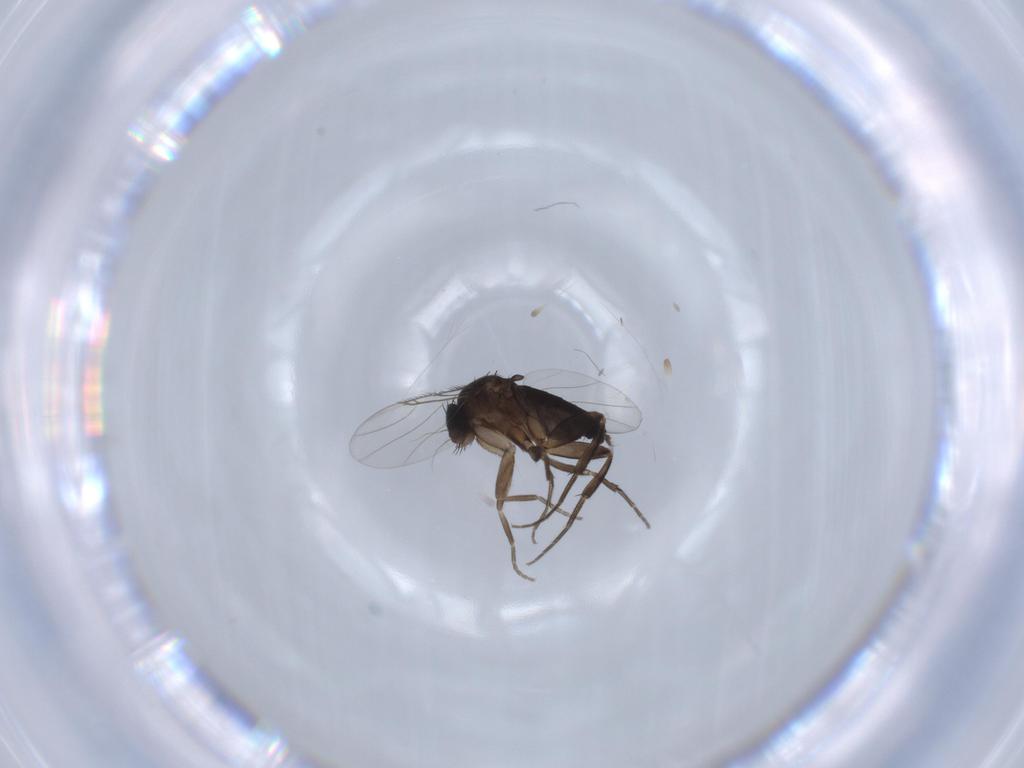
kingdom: Animalia
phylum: Arthropoda
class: Insecta
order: Diptera
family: Phoridae
